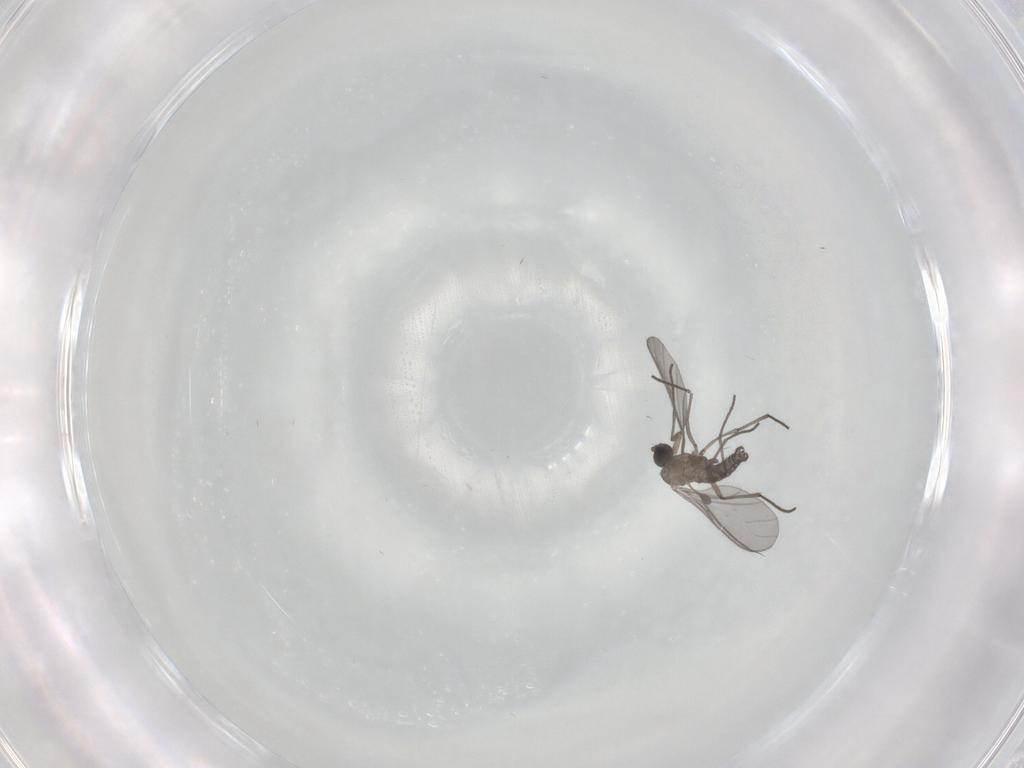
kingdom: Animalia
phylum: Arthropoda
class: Insecta
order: Diptera
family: Sciaridae
